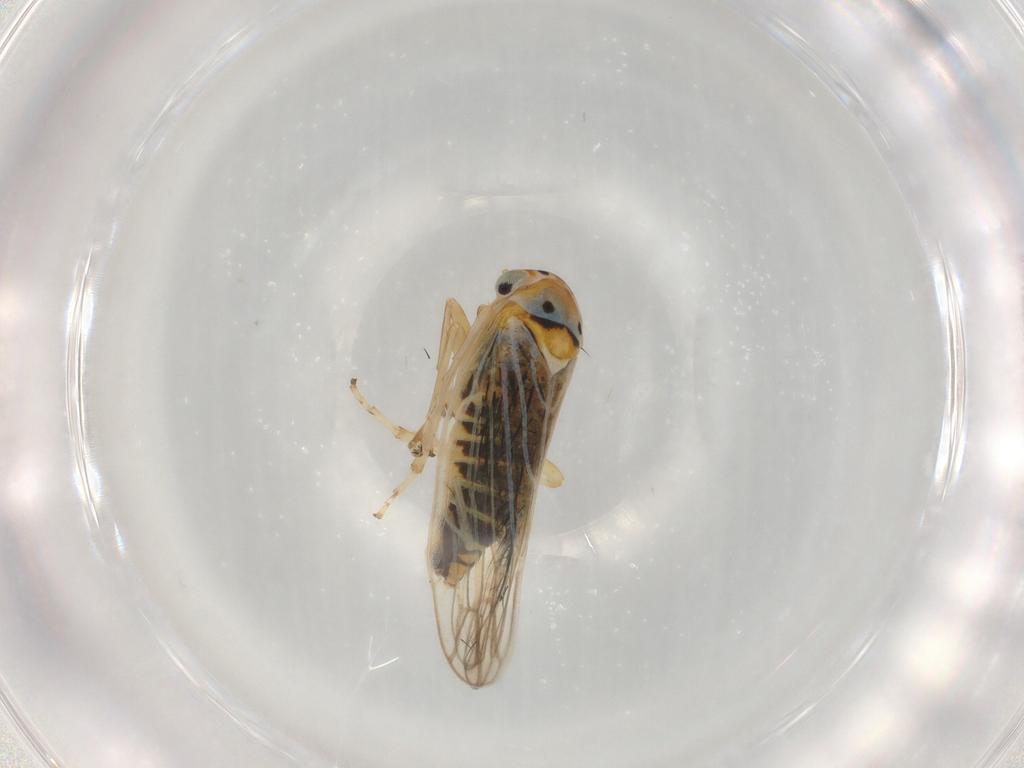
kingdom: Animalia
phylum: Arthropoda
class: Insecta
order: Hemiptera
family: Cicadellidae
